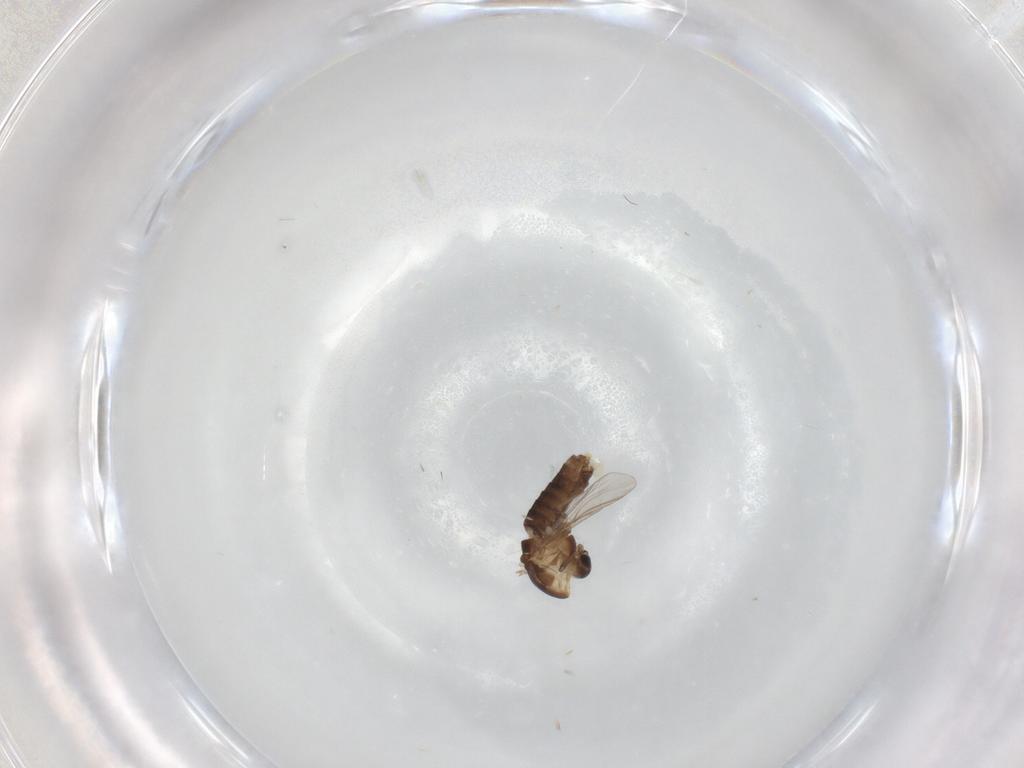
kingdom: Animalia
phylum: Arthropoda
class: Insecta
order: Diptera
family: Chironomidae
